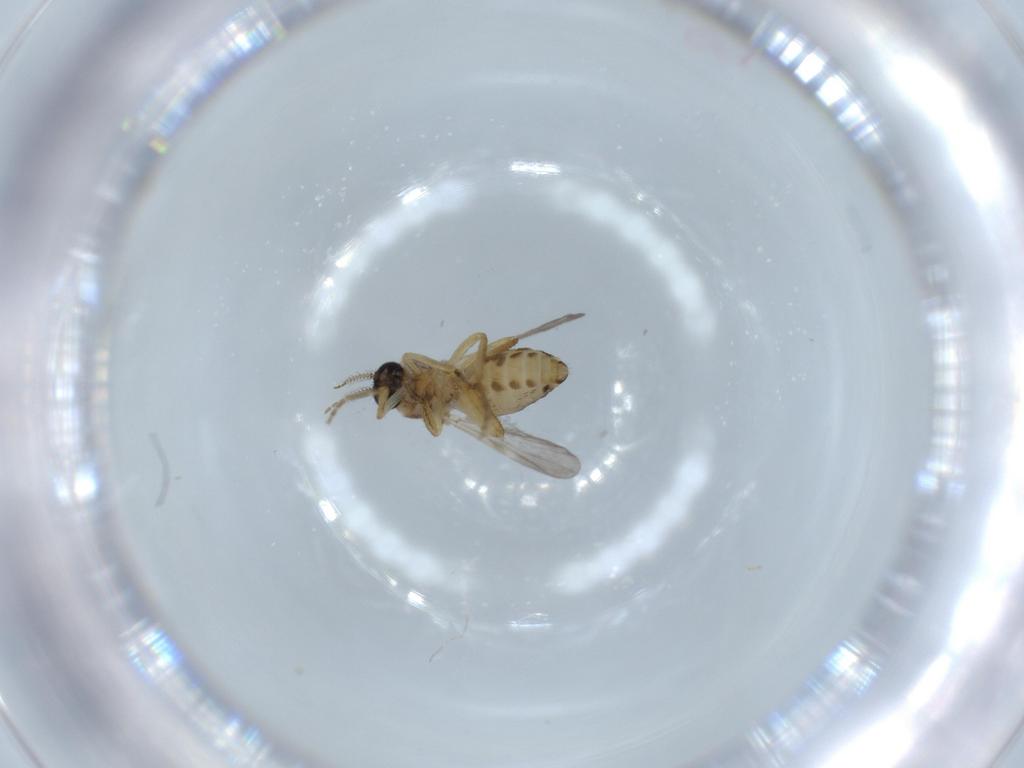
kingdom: Animalia
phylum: Arthropoda
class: Insecta
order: Diptera
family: Ceratopogonidae
